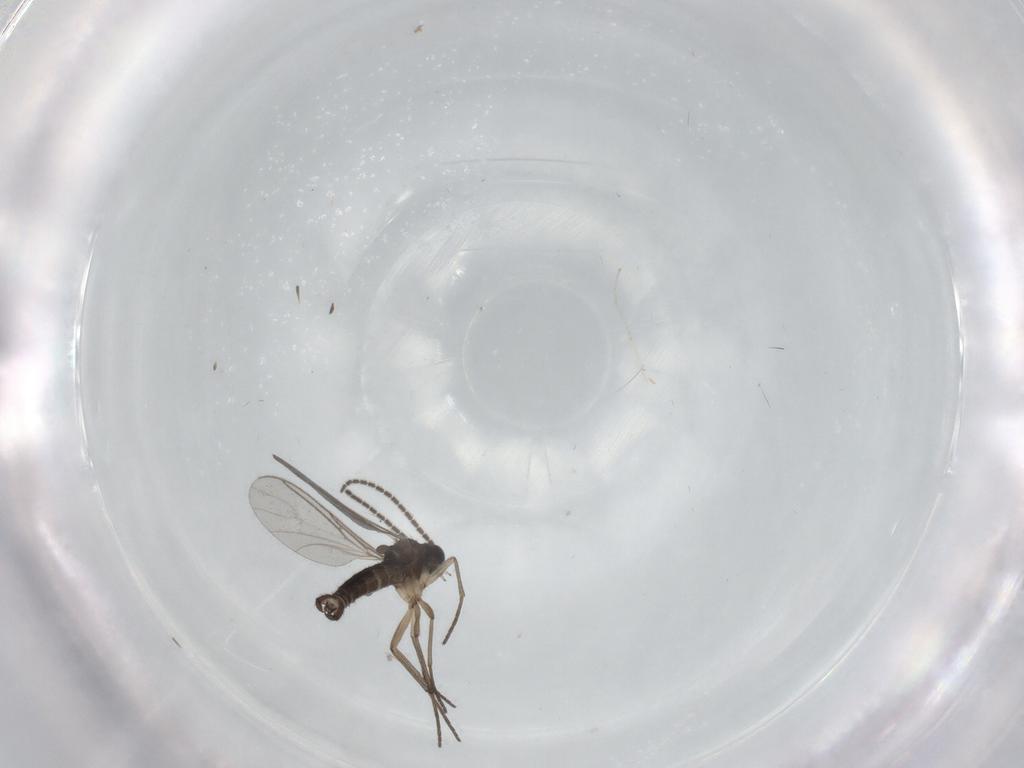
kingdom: Animalia
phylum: Arthropoda
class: Insecta
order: Diptera
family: Sciaridae
